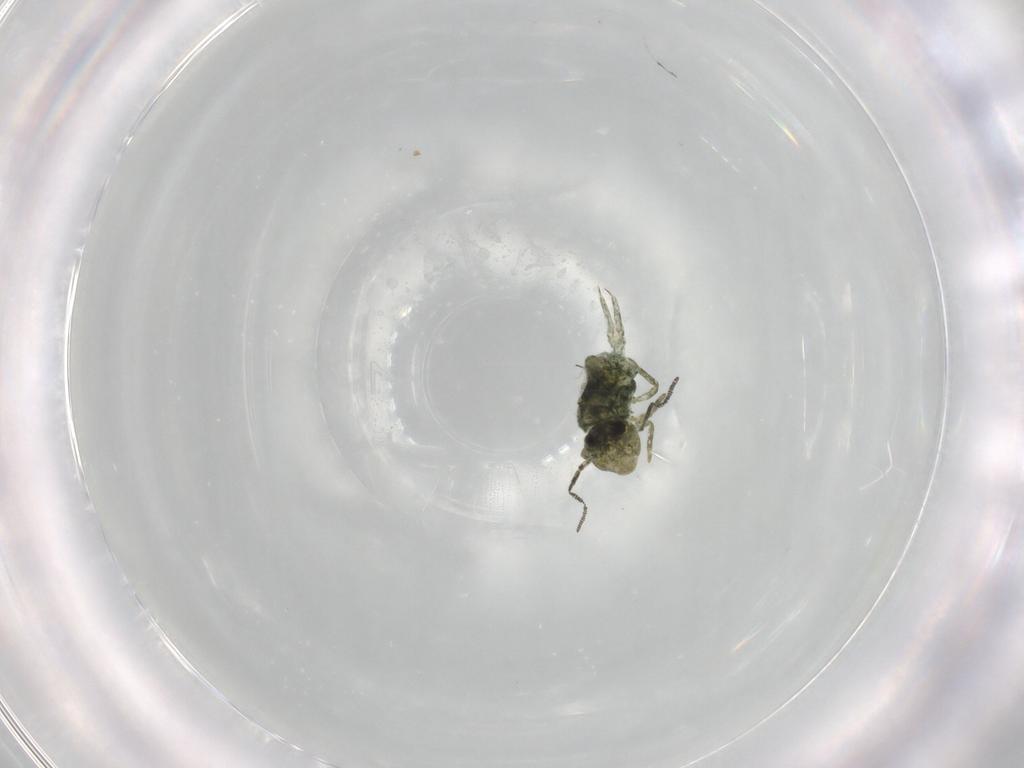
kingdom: Animalia
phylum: Arthropoda
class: Collembola
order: Symphypleona
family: Sminthuridae
